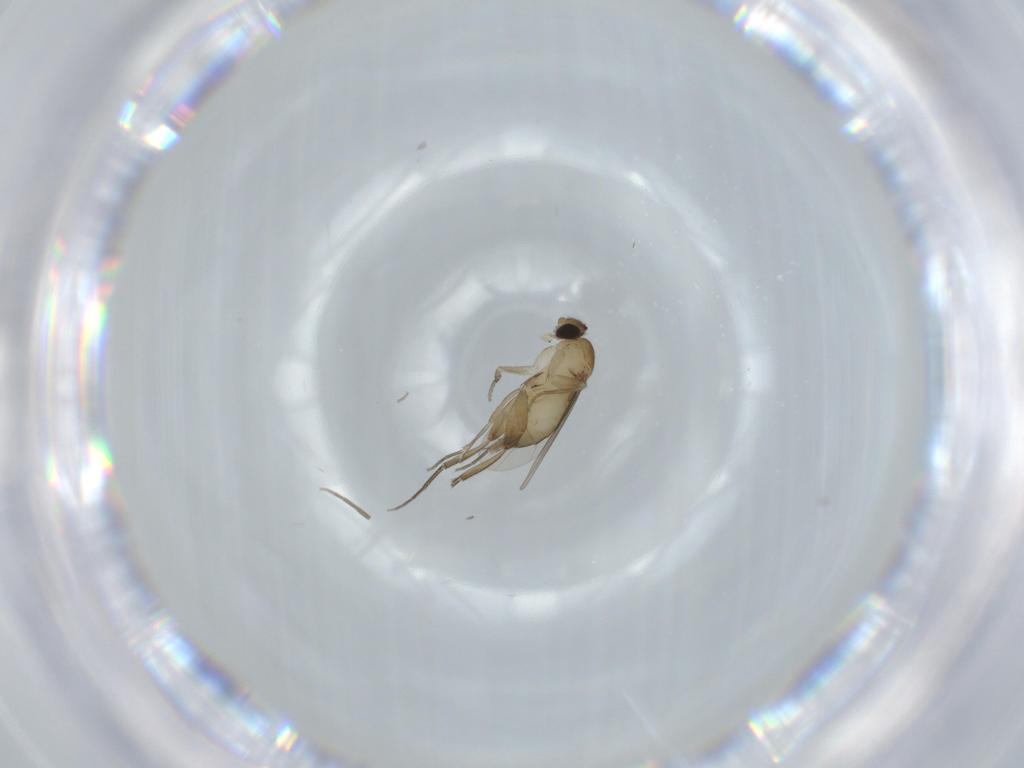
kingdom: Animalia
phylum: Arthropoda
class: Insecta
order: Diptera
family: Phoridae
